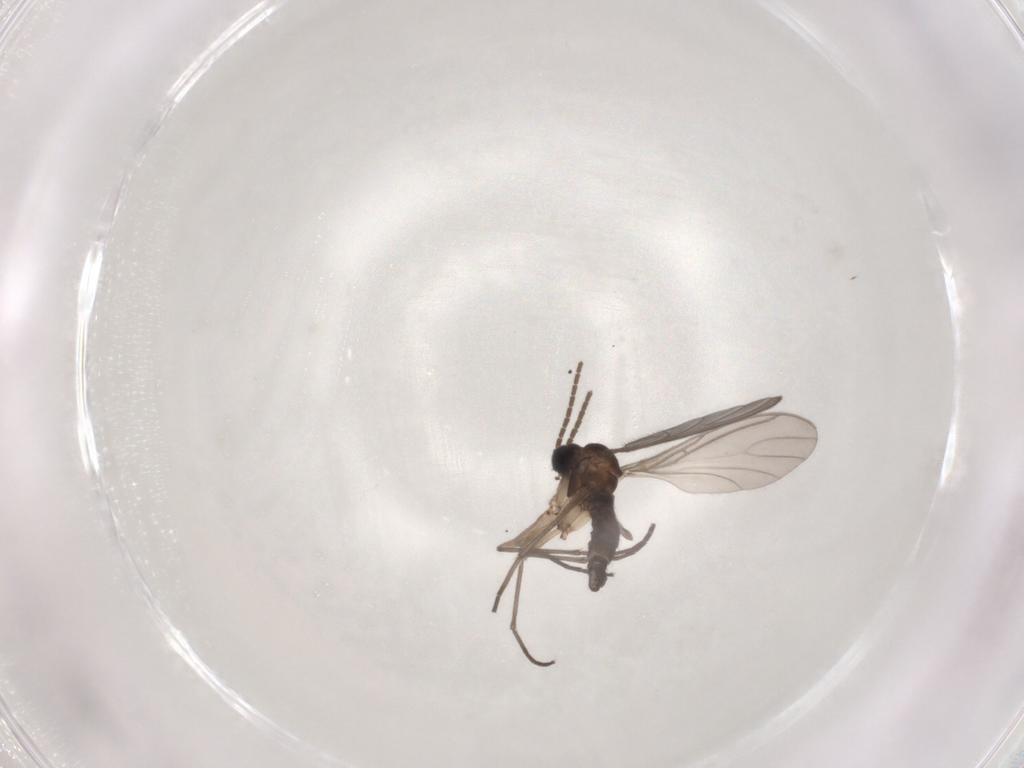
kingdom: Animalia
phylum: Arthropoda
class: Insecta
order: Diptera
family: Sciaridae
